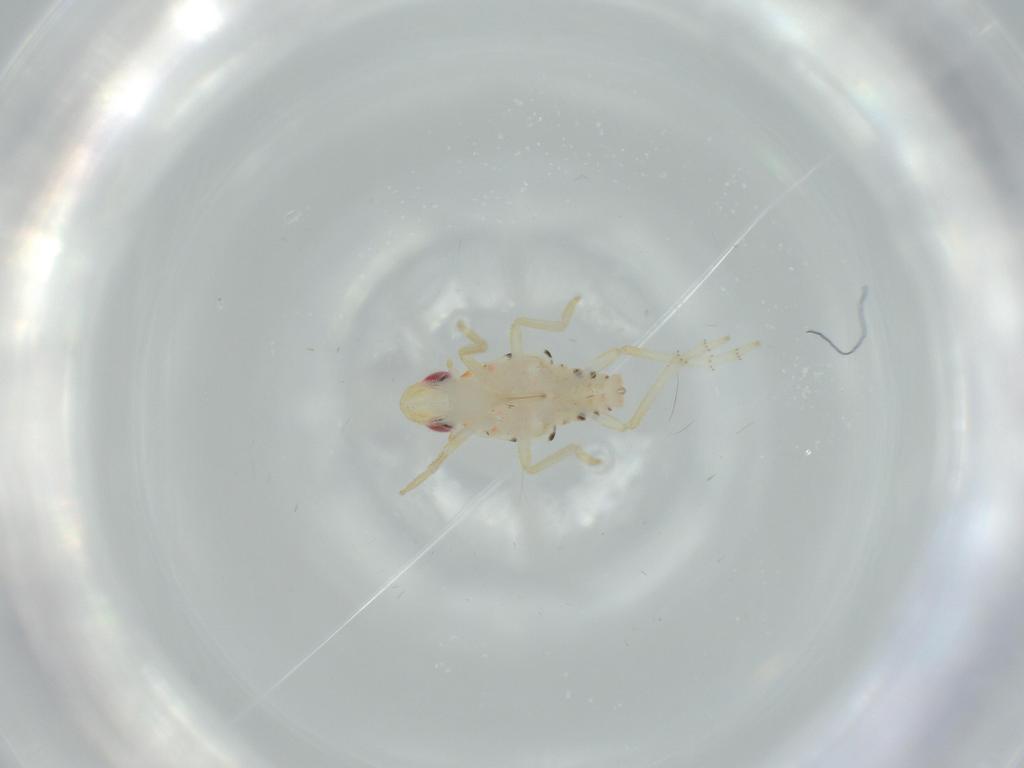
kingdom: Animalia
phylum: Arthropoda
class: Insecta
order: Hemiptera
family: Tropiduchidae
